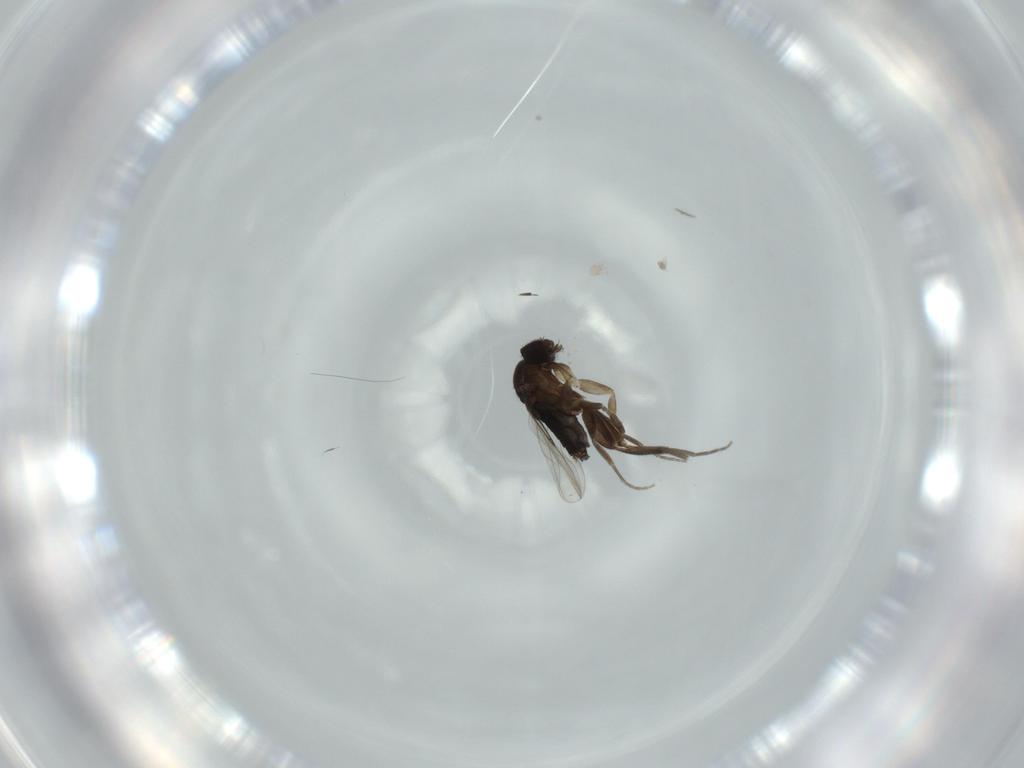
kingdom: Animalia
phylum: Arthropoda
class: Insecta
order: Diptera
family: Phoridae
